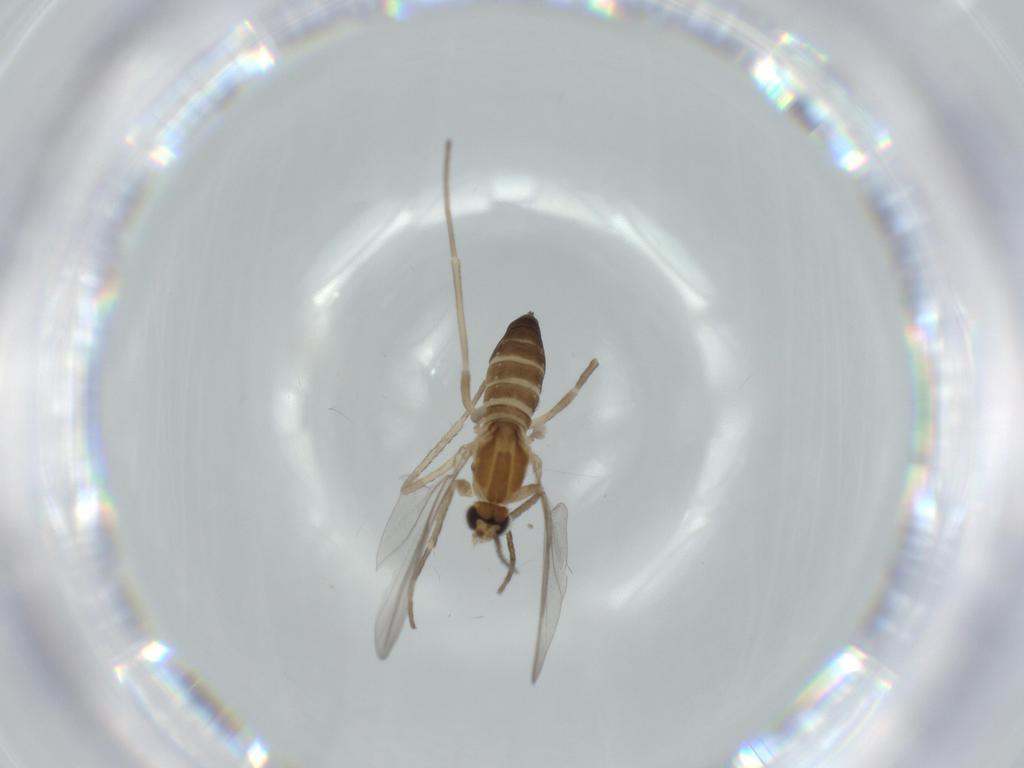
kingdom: Animalia
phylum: Arthropoda
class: Insecta
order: Diptera
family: Cecidomyiidae
